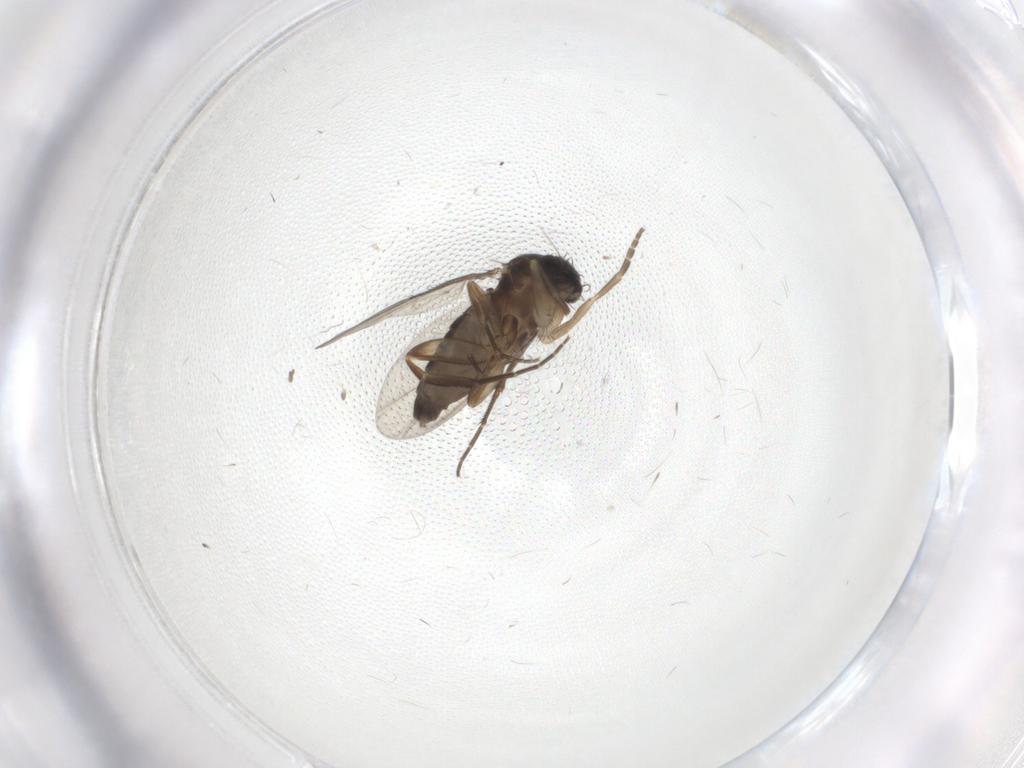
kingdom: Animalia
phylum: Arthropoda
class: Insecta
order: Diptera
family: Phoridae
